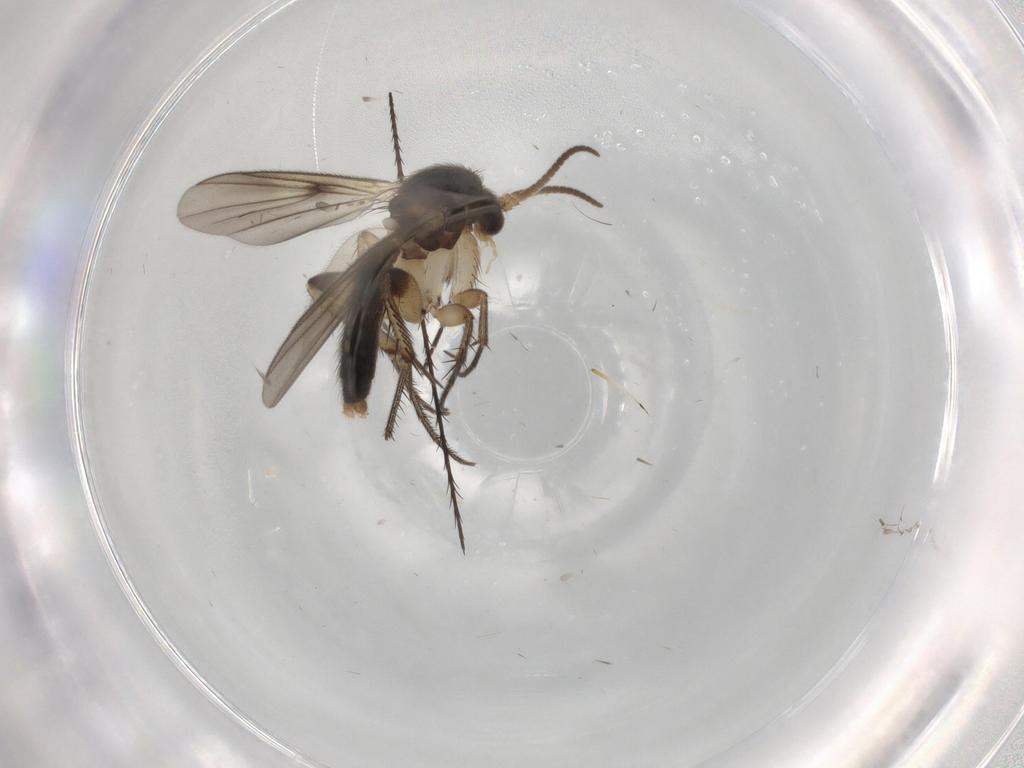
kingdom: Animalia
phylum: Arthropoda
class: Insecta
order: Diptera
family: Mycetophilidae
